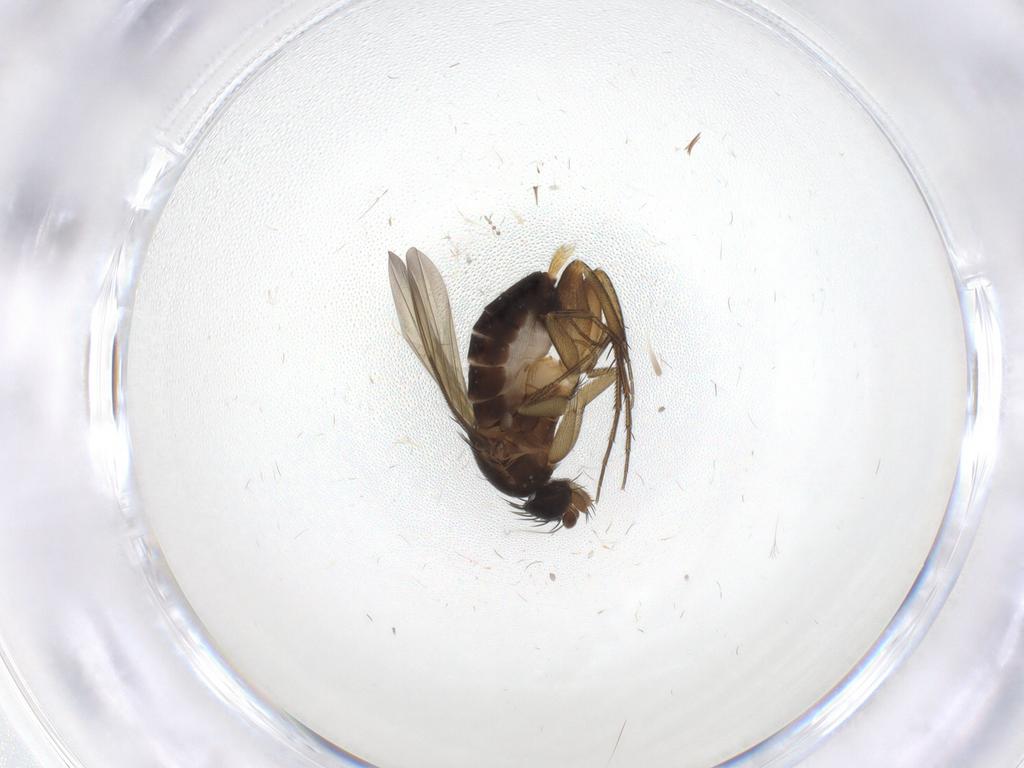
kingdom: Animalia
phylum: Arthropoda
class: Insecta
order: Diptera
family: Phoridae
